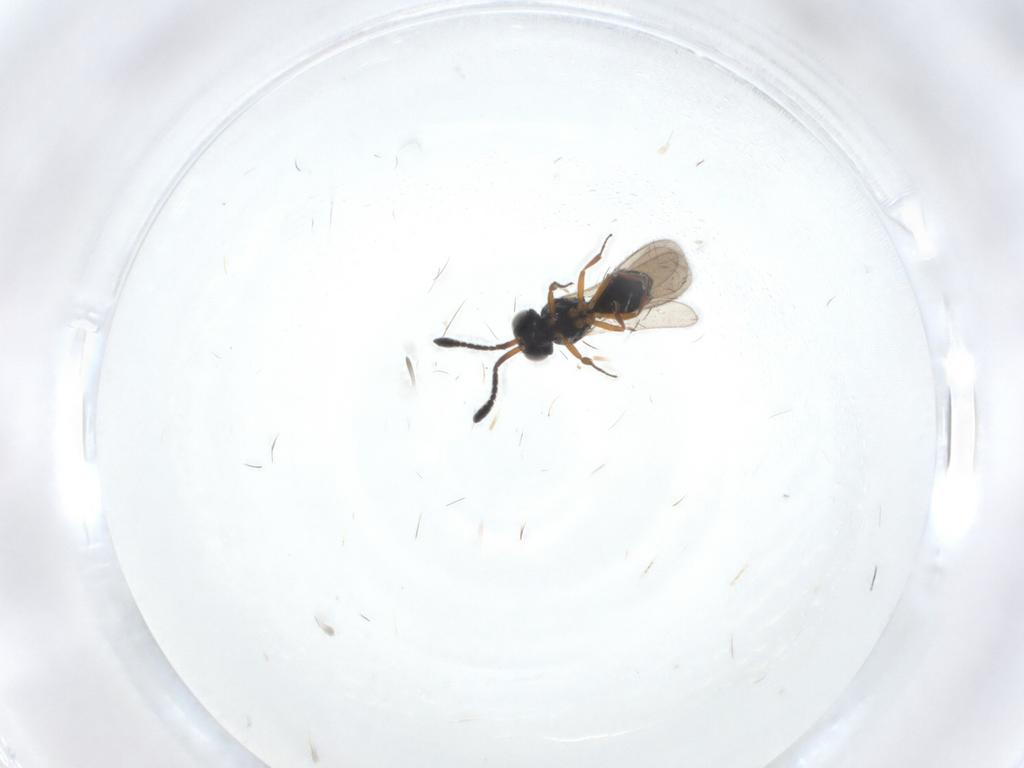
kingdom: Animalia
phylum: Arthropoda
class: Insecta
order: Hymenoptera
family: Scelionidae
